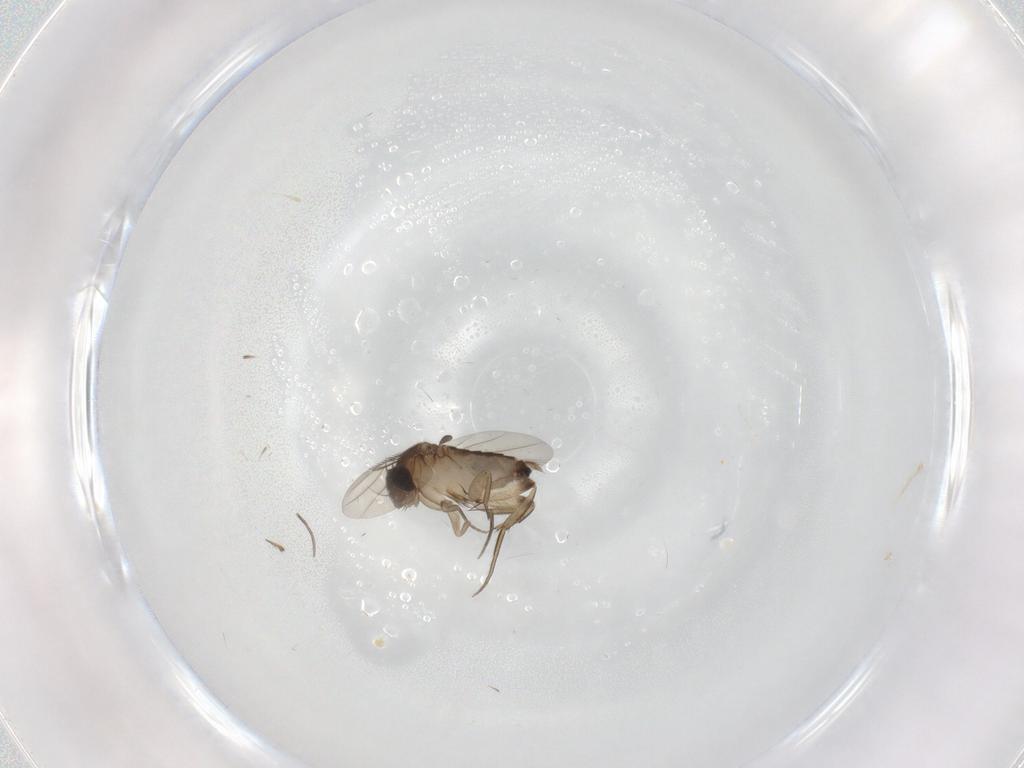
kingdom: Animalia
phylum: Arthropoda
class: Insecta
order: Diptera
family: Phoridae
